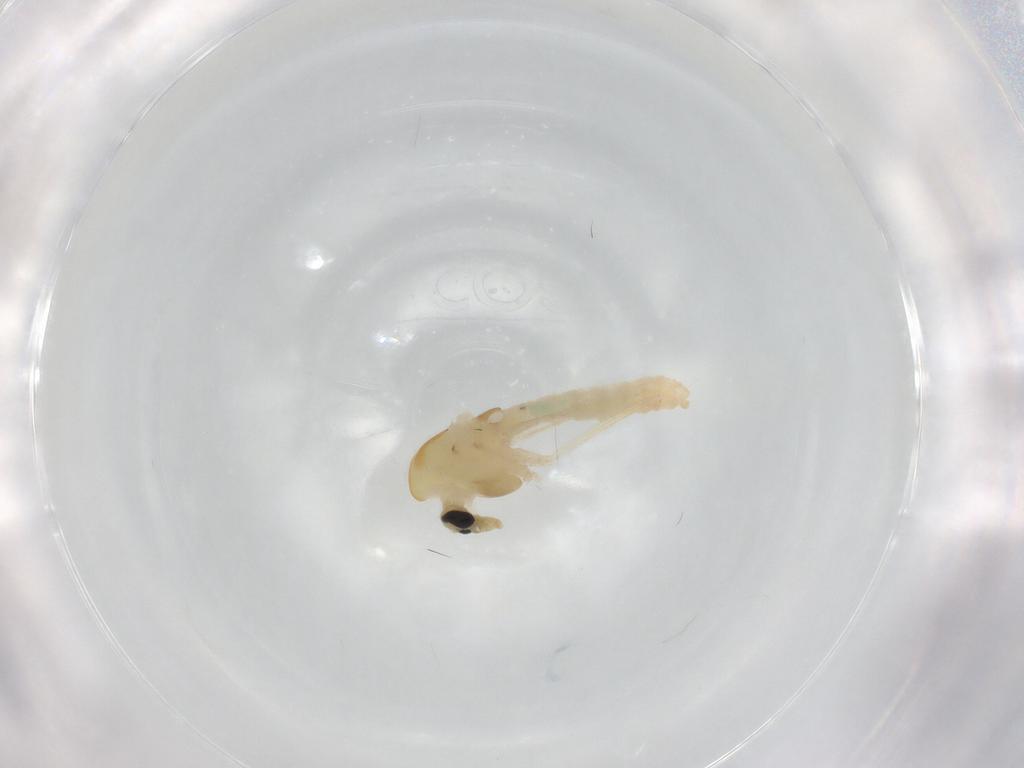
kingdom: Animalia
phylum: Arthropoda
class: Insecta
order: Diptera
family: Chironomidae
